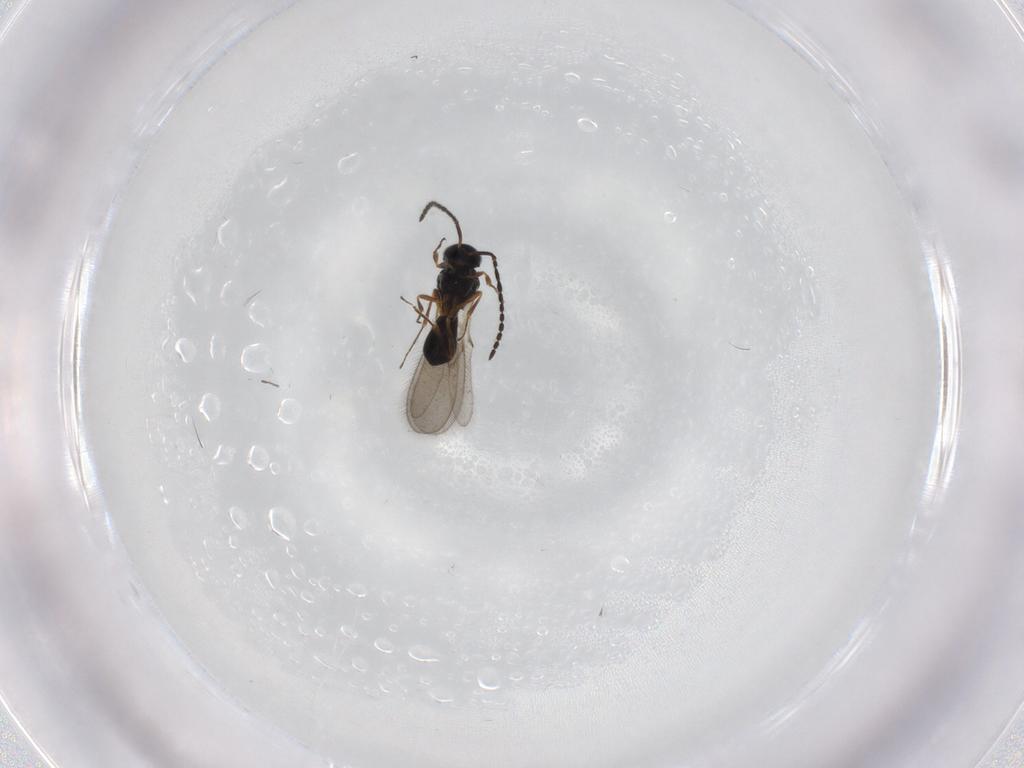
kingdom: Animalia
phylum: Arthropoda
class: Insecta
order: Hymenoptera
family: Scelionidae
